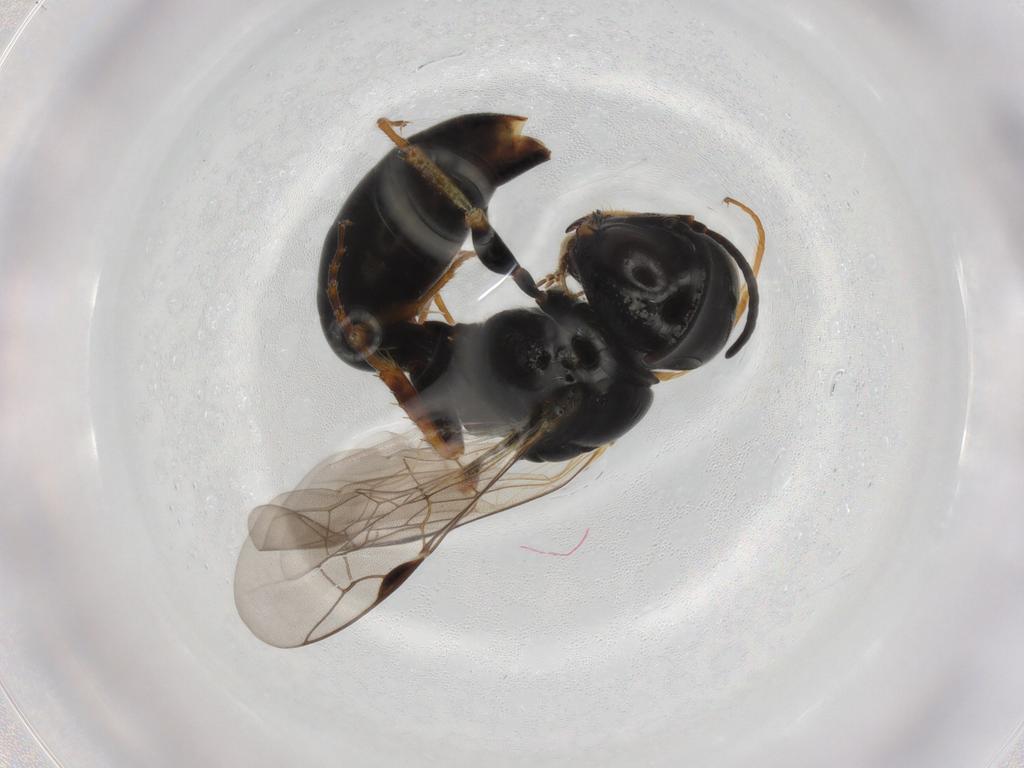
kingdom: Animalia
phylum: Arthropoda
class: Insecta
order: Hymenoptera
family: Crabronidae
